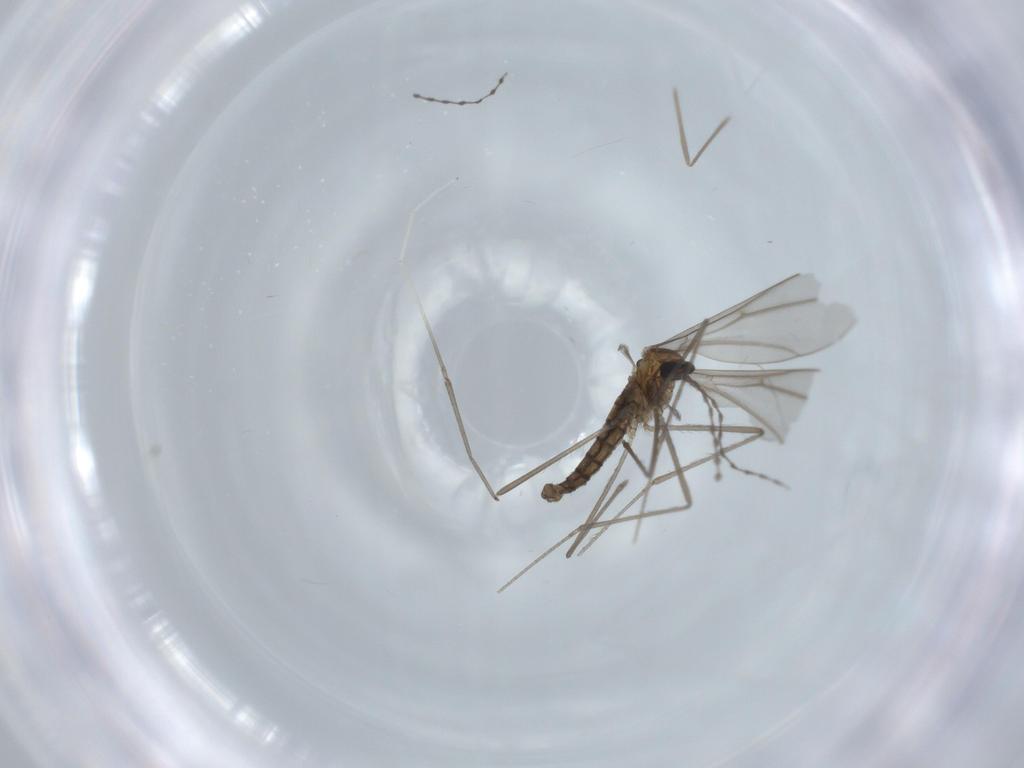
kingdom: Animalia
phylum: Arthropoda
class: Insecta
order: Diptera
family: Cecidomyiidae
